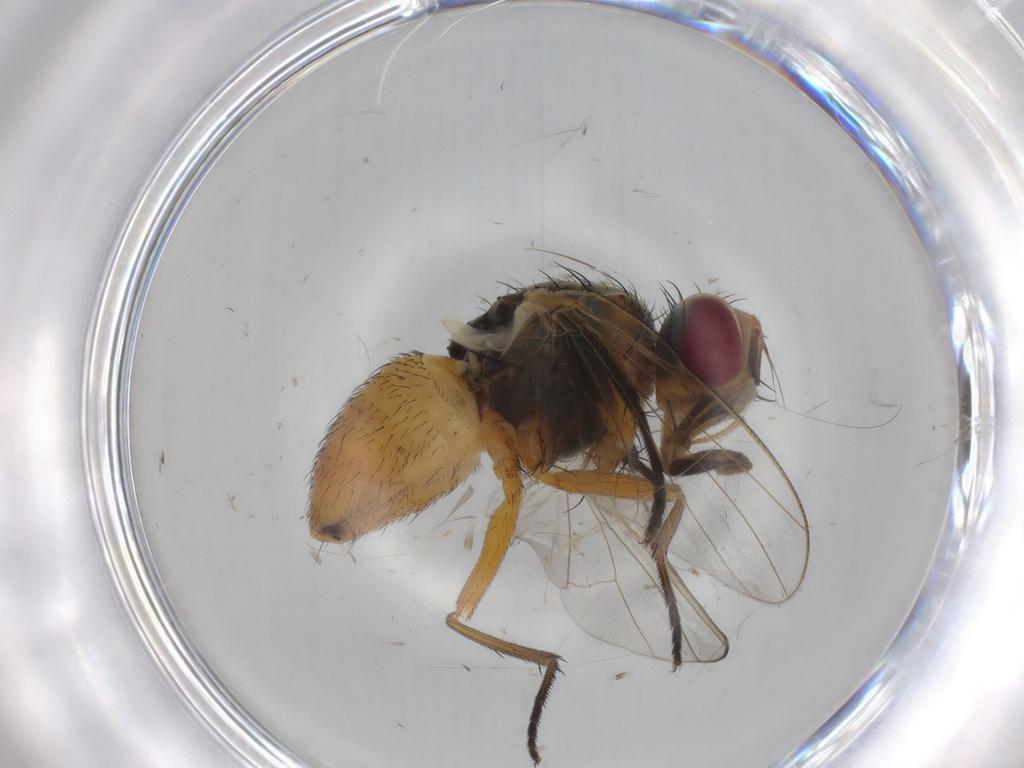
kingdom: Animalia
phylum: Arthropoda
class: Insecta
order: Diptera
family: Muscidae
